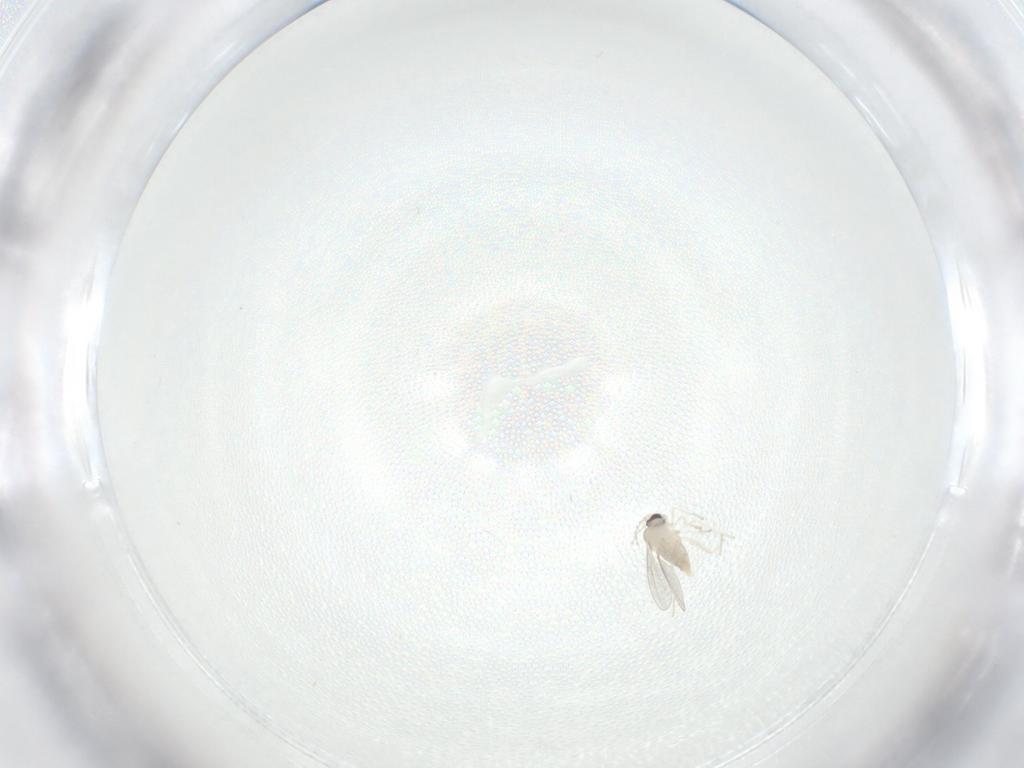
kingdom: Animalia
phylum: Arthropoda
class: Insecta
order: Diptera
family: Cecidomyiidae
